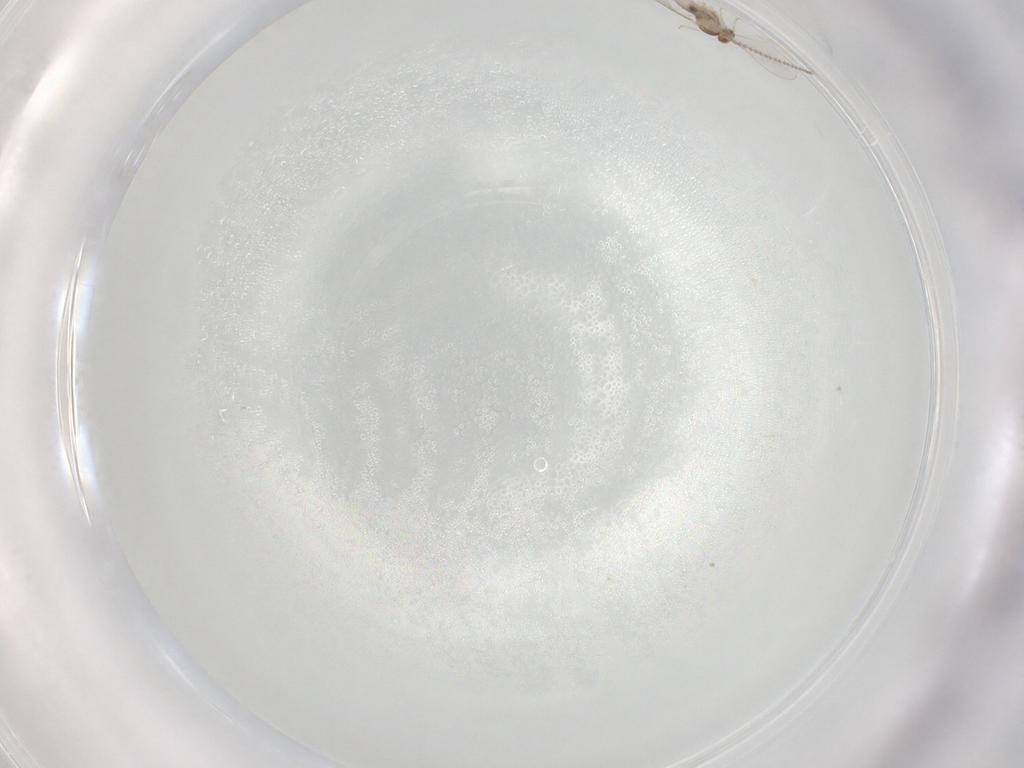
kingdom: Animalia
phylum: Arthropoda
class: Insecta
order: Diptera
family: Cecidomyiidae
